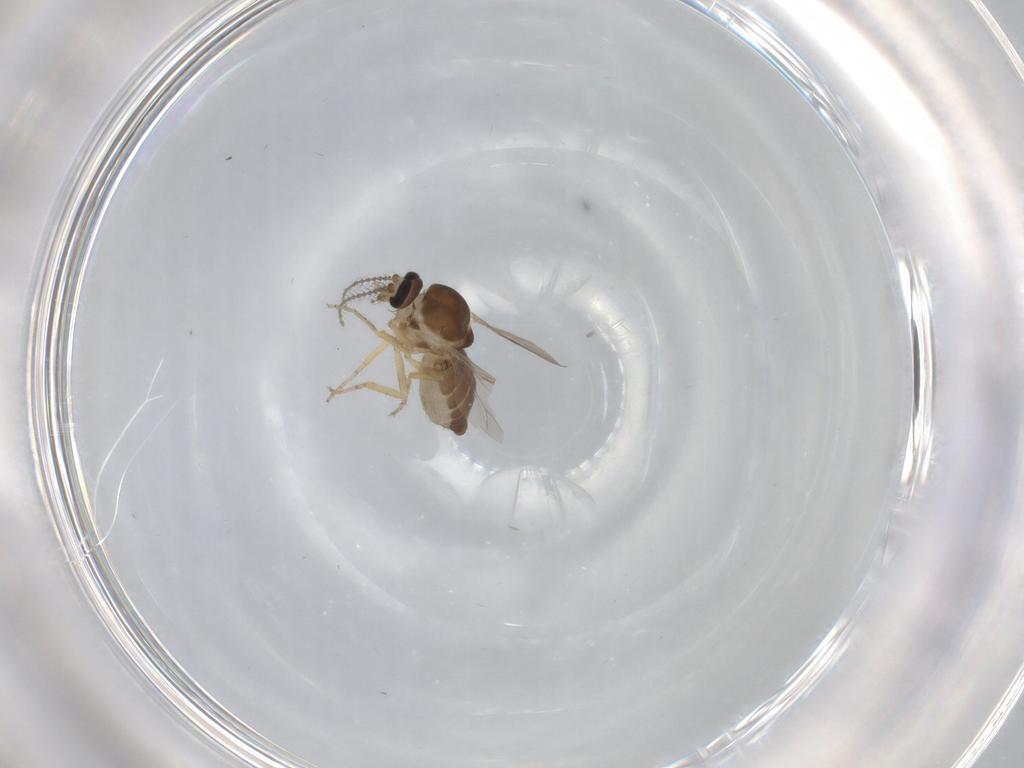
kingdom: Animalia
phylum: Arthropoda
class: Insecta
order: Diptera
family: Ceratopogonidae
